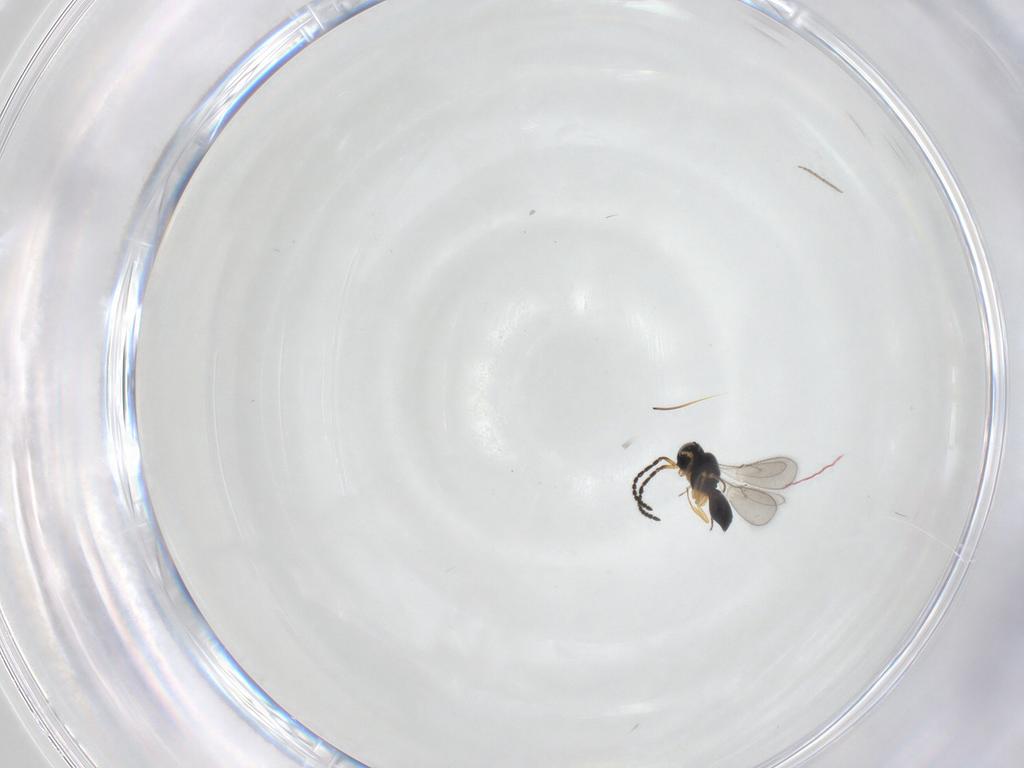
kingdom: Animalia
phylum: Arthropoda
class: Insecta
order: Hymenoptera
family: Scelionidae
